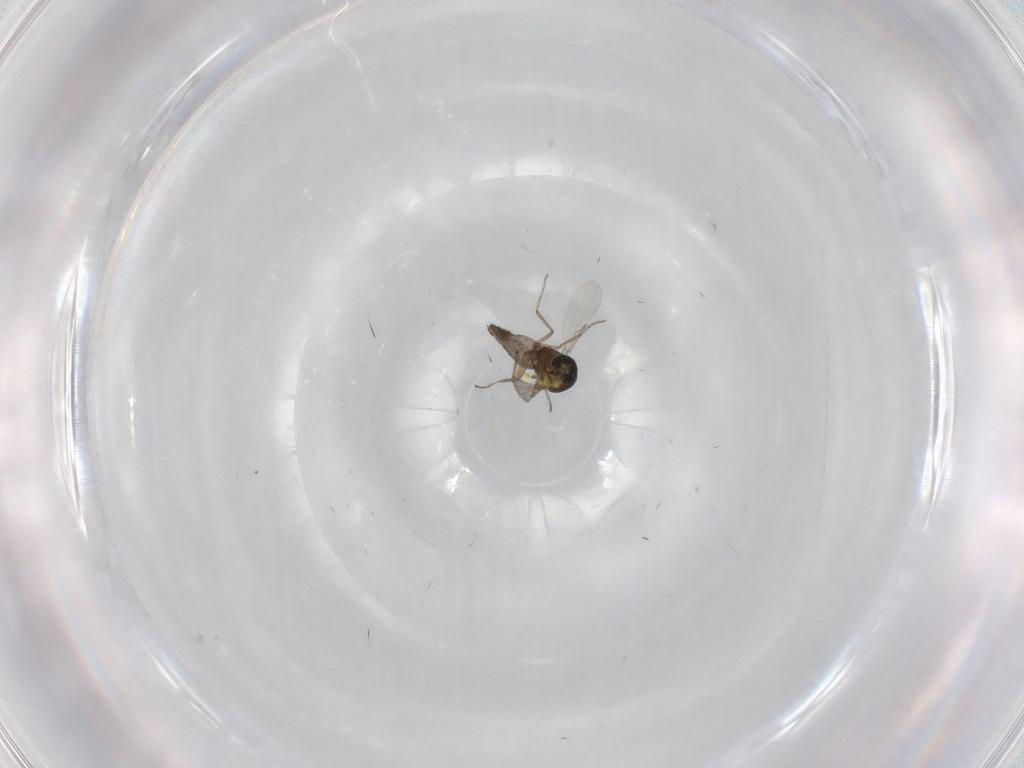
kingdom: Animalia
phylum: Arthropoda
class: Insecta
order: Diptera
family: Ceratopogonidae
